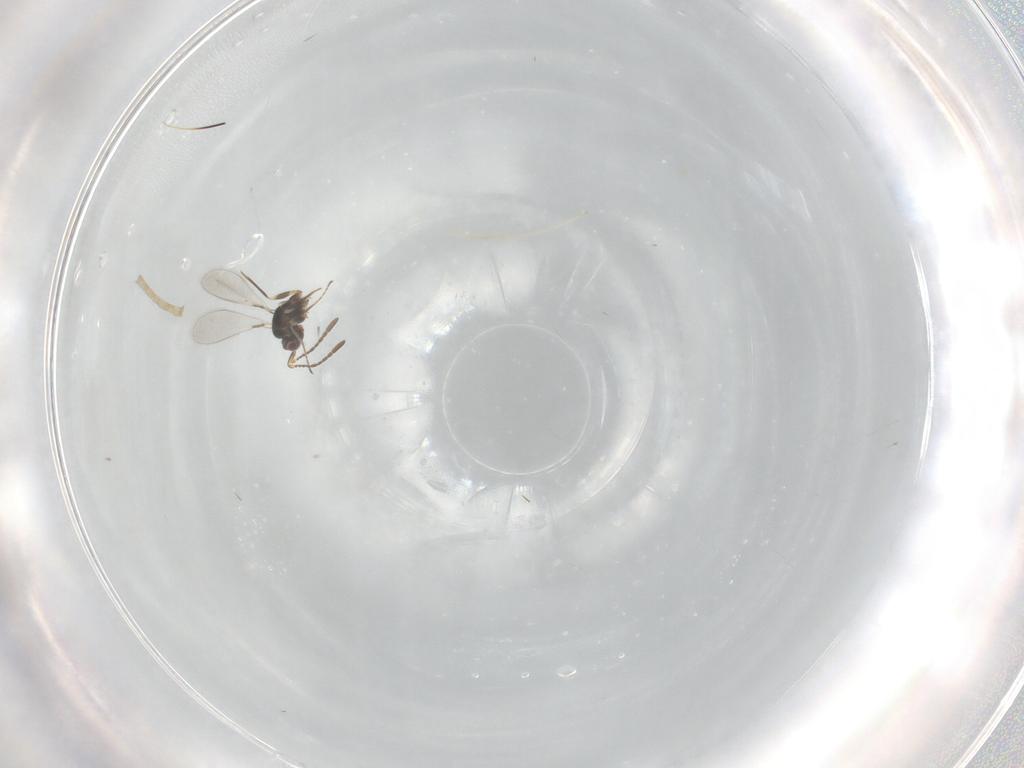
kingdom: Animalia
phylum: Arthropoda
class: Insecta
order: Hymenoptera
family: Mymaridae
